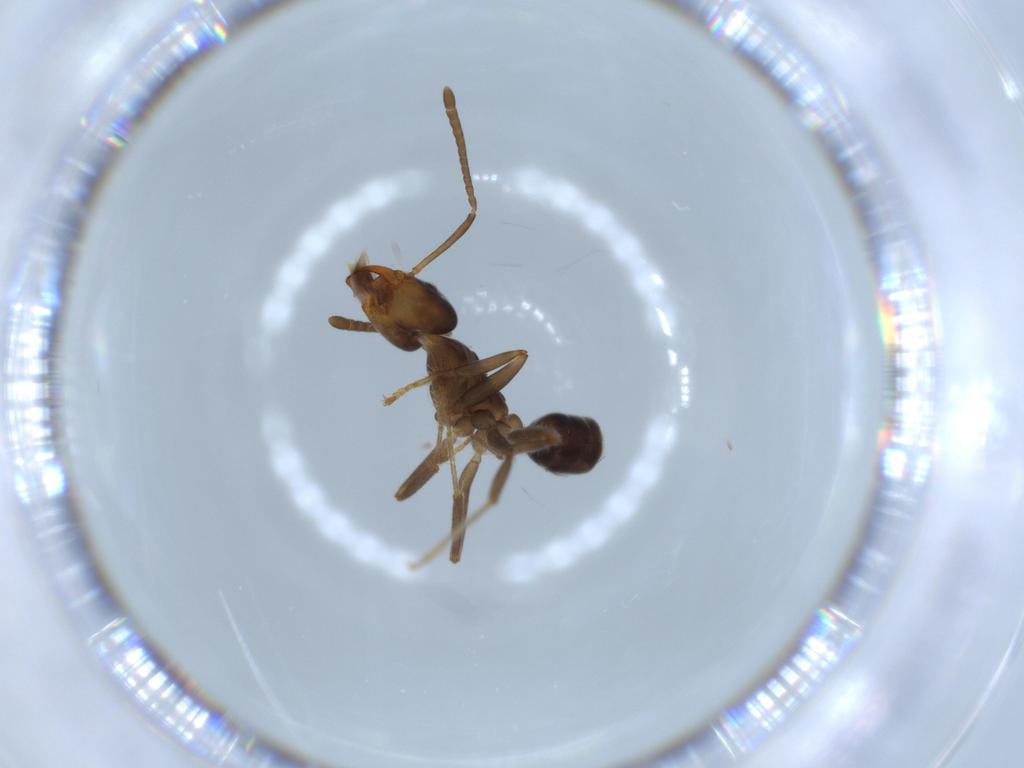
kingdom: Animalia
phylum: Arthropoda
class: Insecta
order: Hymenoptera
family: Formicidae
